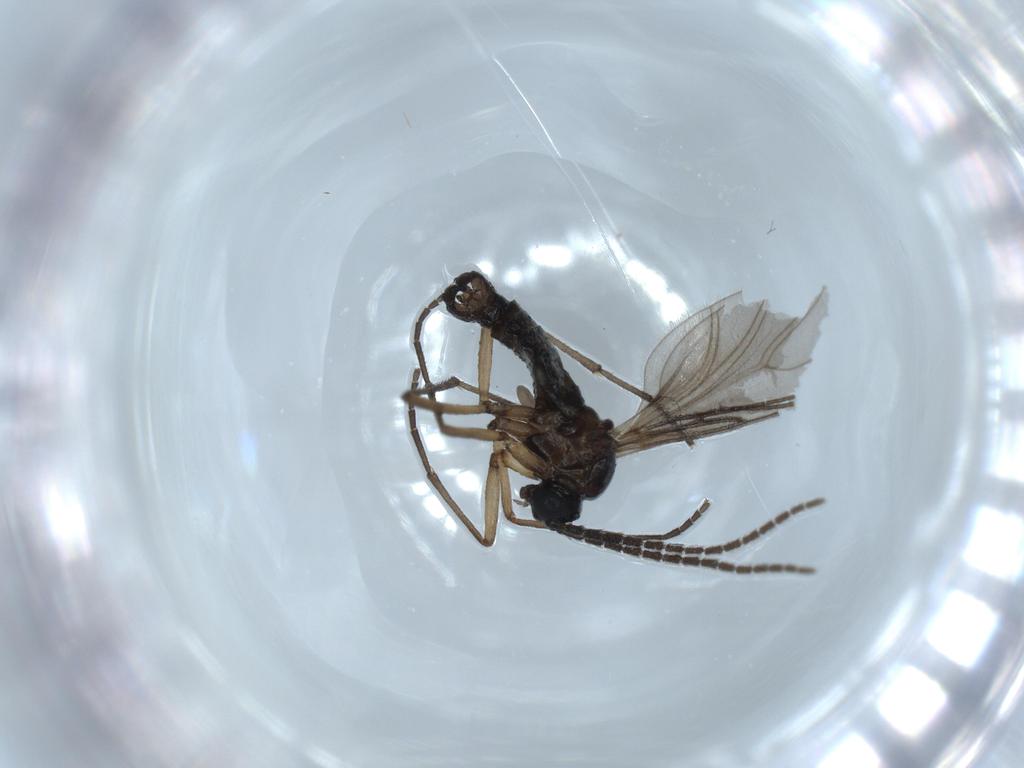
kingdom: Animalia
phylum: Arthropoda
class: Insecta
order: Diptera
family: Sciaridae
